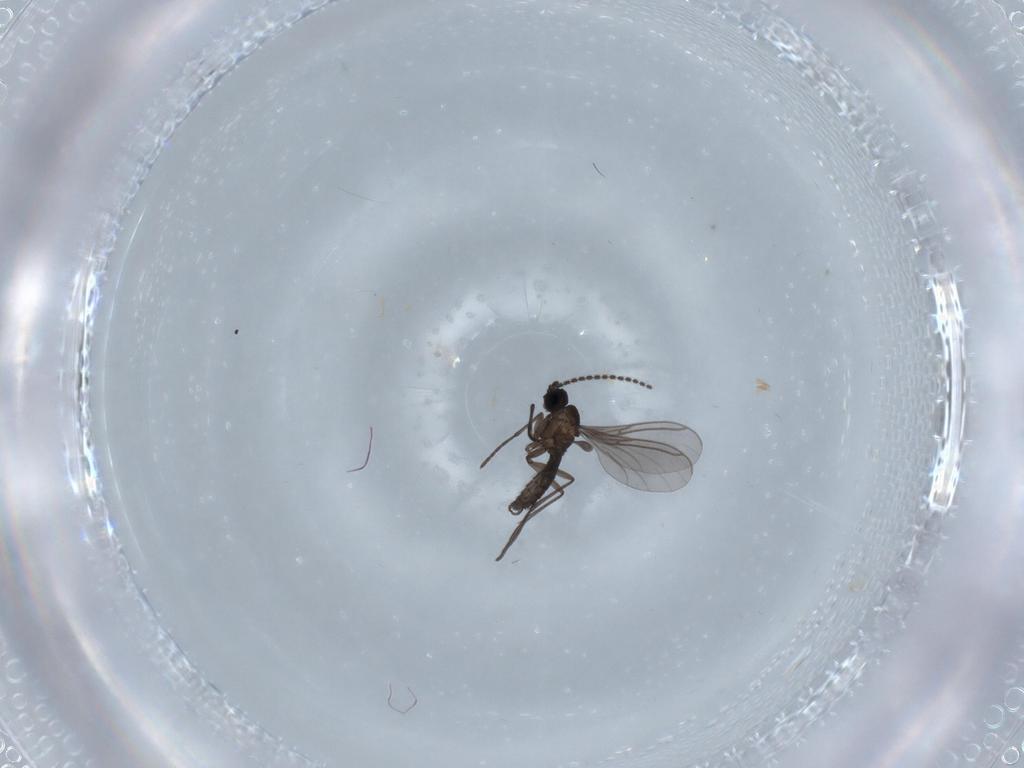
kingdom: Animalia
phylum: Arthropoda
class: Insecta
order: Diptera
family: Chironomidae
